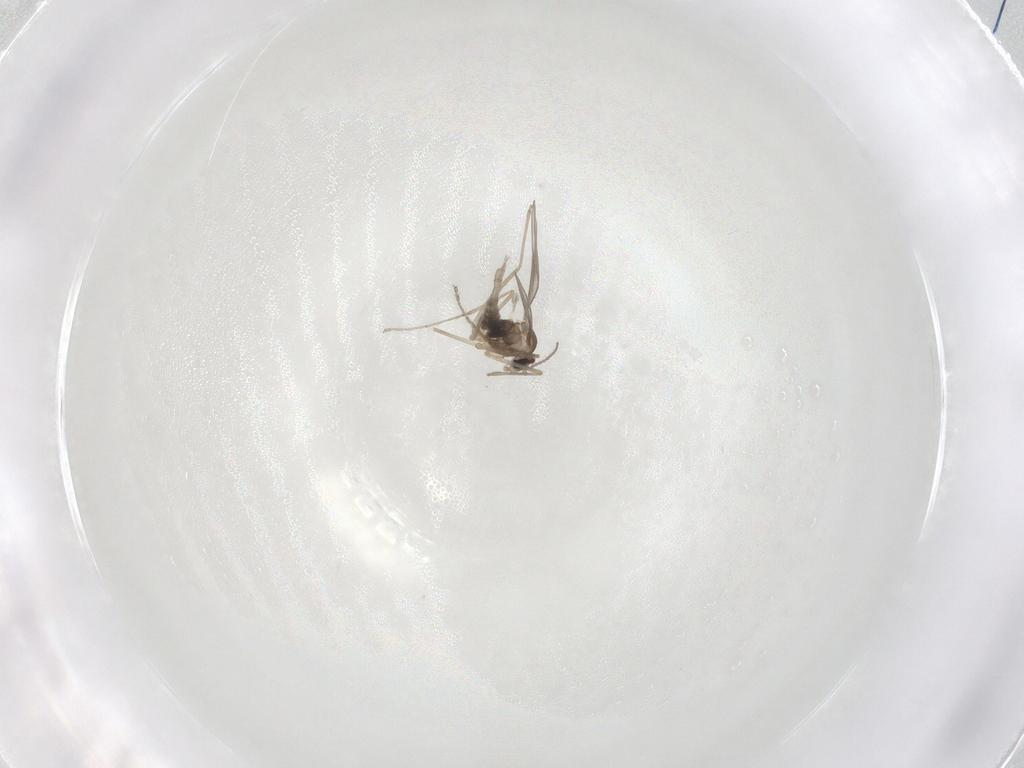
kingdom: Animalia
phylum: Arthropoda
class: Insecta
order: Diptera
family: Cecidomyiidae
